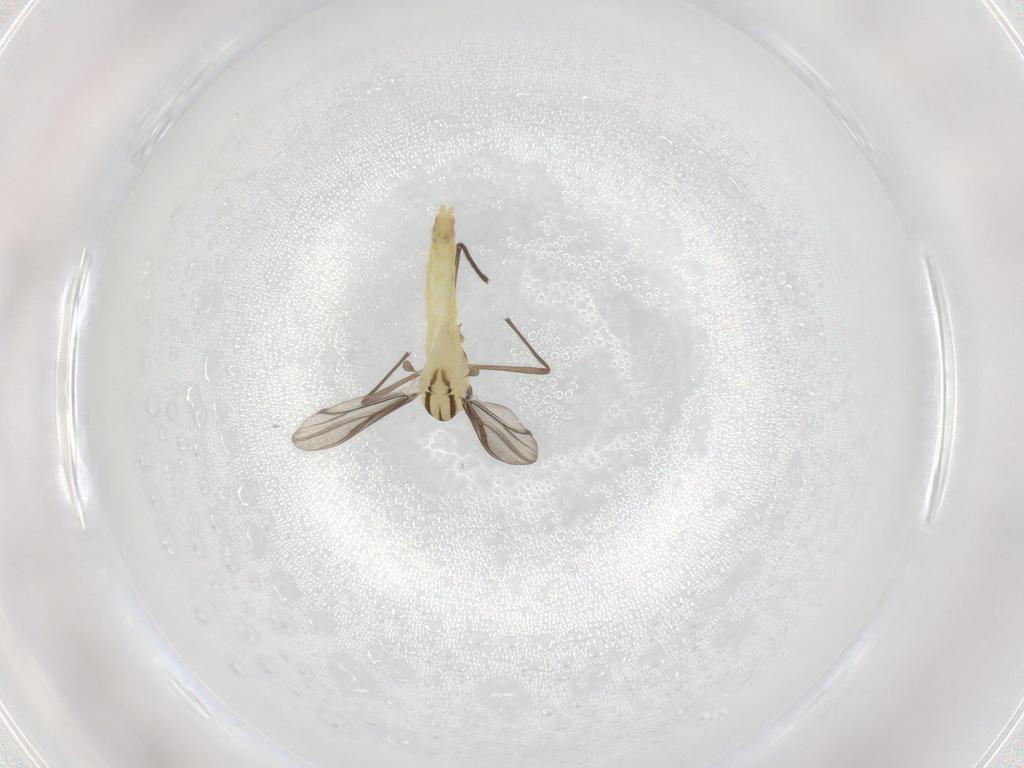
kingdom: Animalia
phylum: Arthropoda
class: Insecta
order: Diptera
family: Chironomidae
